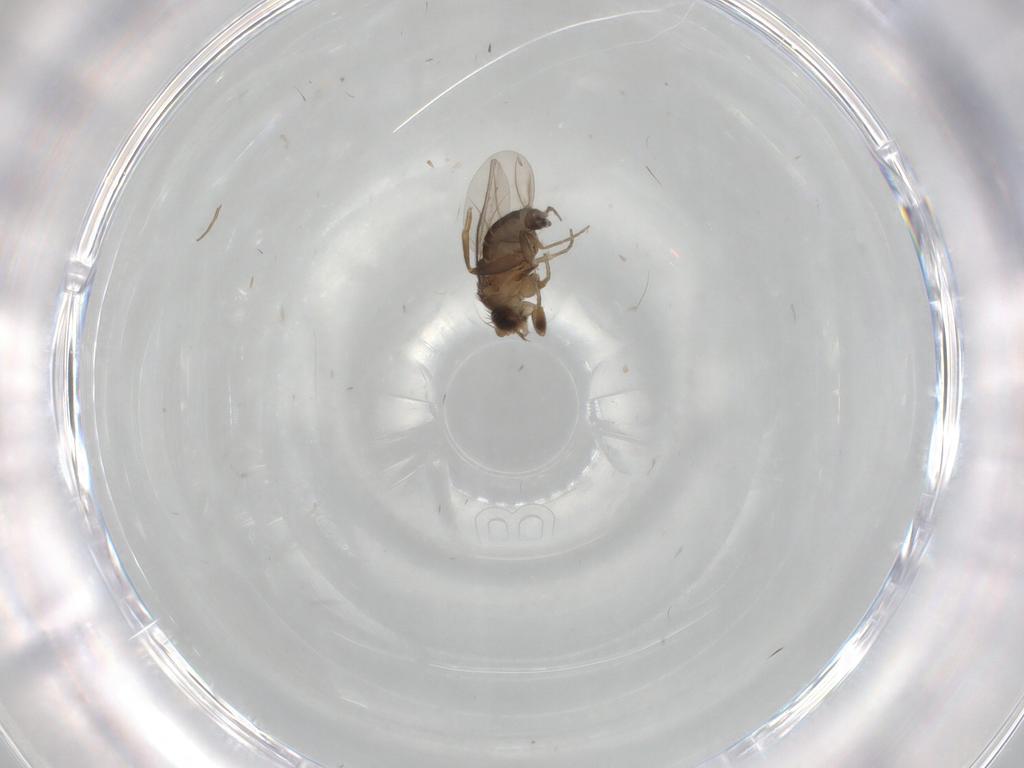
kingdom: Animalia
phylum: Arthropoda
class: Insecta
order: Diptera
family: Phoridae
